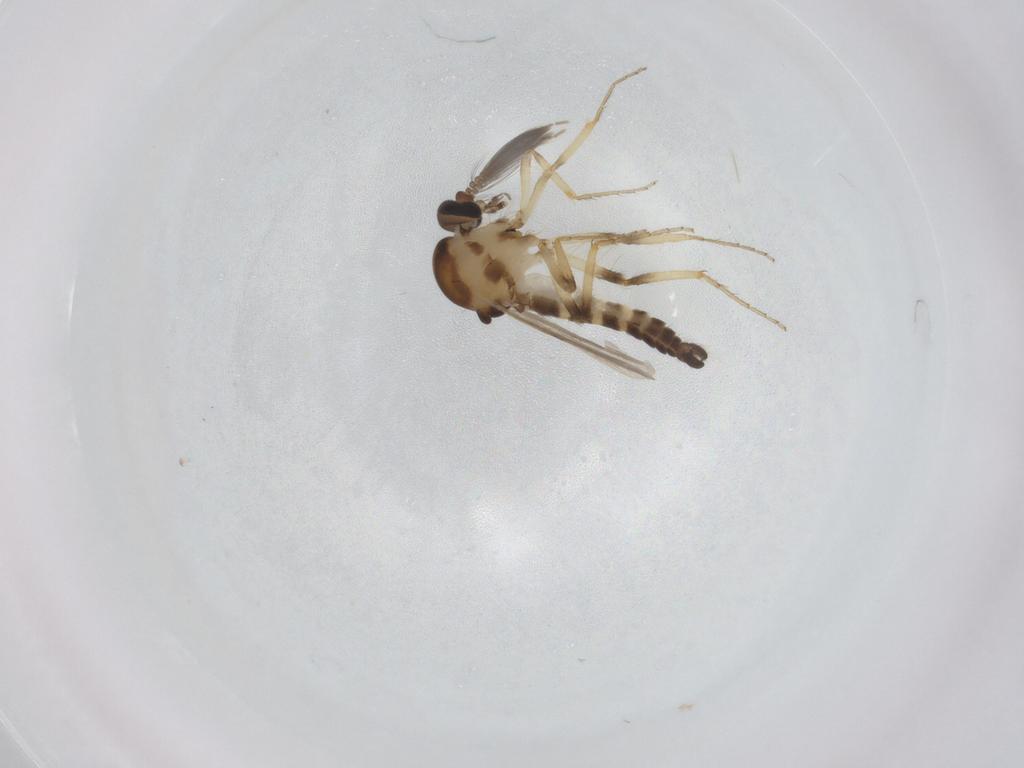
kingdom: Animalia
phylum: Arthropoda
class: Insecta
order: Diptera
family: Ceratopogonidae
